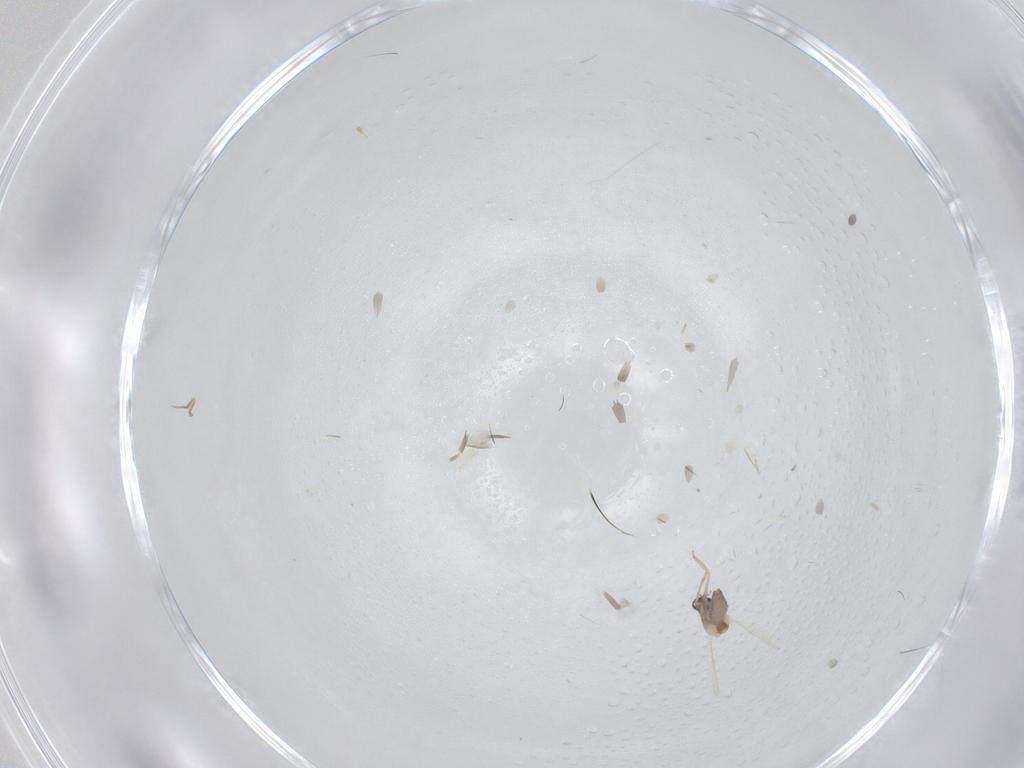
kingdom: Animalia
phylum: Arthropoda
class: Insecta
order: Diptera
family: Ceratopogonidae
